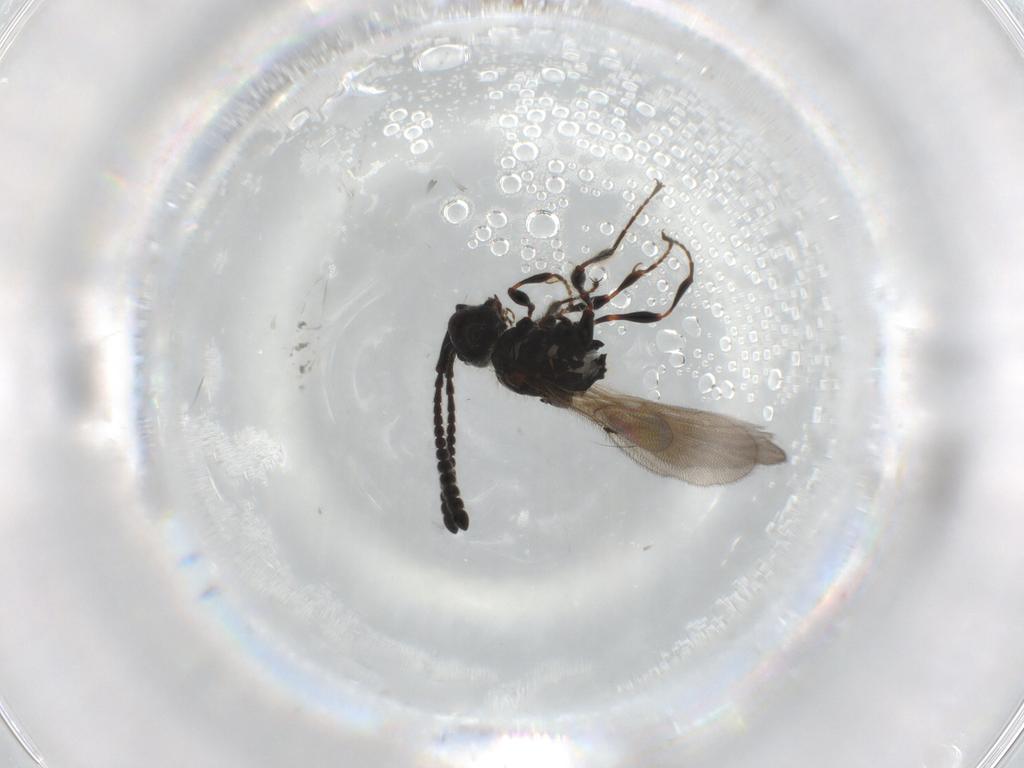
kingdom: Animalia
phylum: Arthropoda
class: Insecta
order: Hymenoptera
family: Diapriidae
